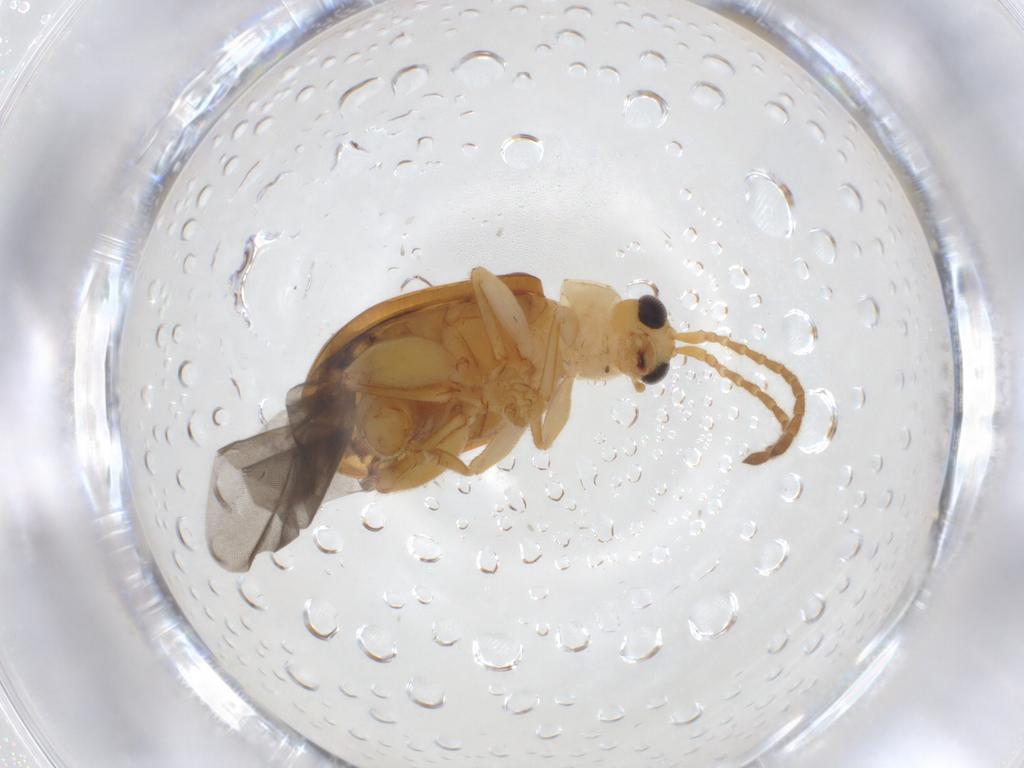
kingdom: Animalia
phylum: Arthropoda
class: Insecta
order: Coleoptera
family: Chrysomelidae
